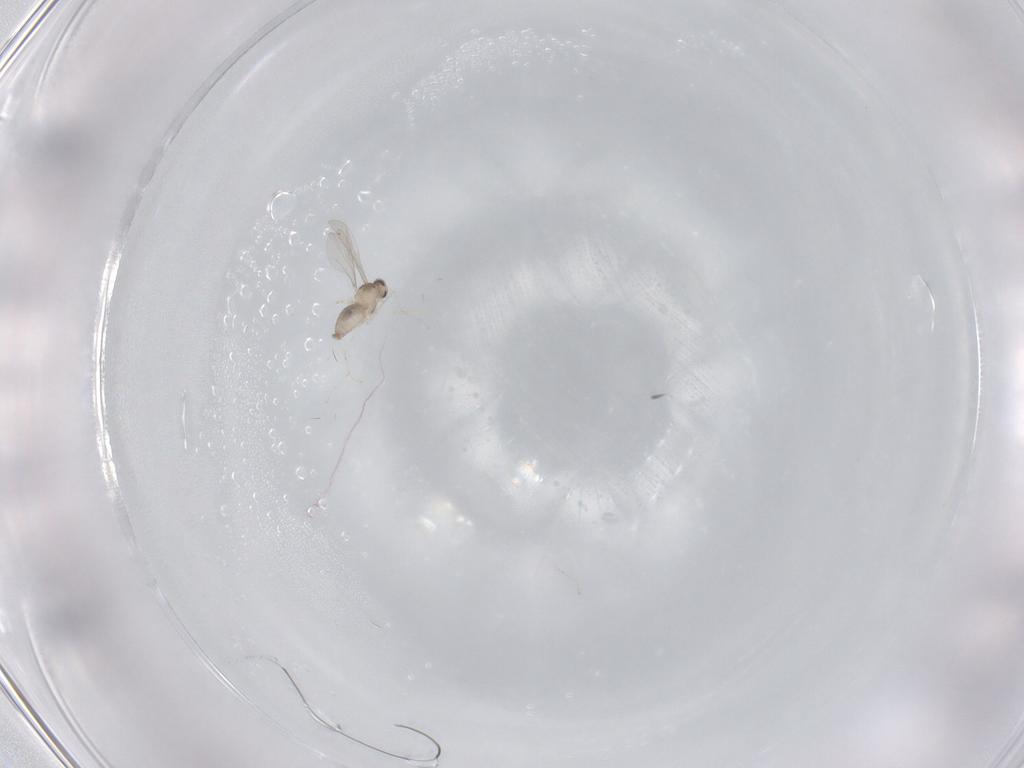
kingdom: Animalia
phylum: Arthropoda
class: Insecta
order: Diptera
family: Cecidomyiidae
